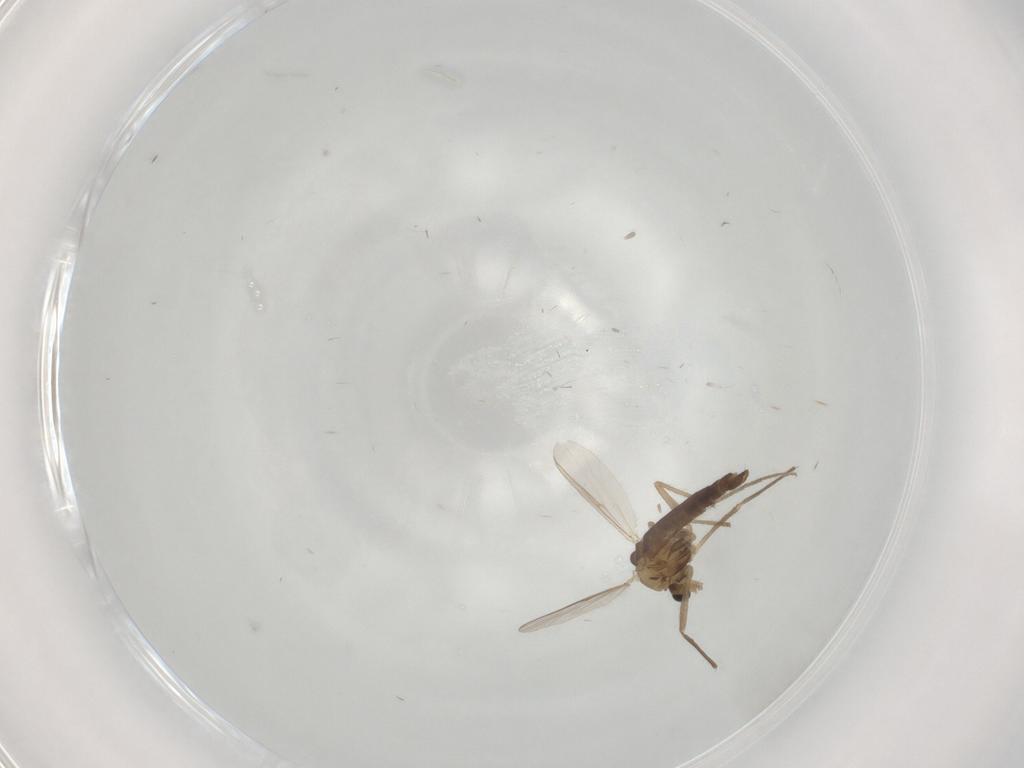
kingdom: Animalia
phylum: Arthropoda
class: Insecta
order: Diptera
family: Chironomidae
